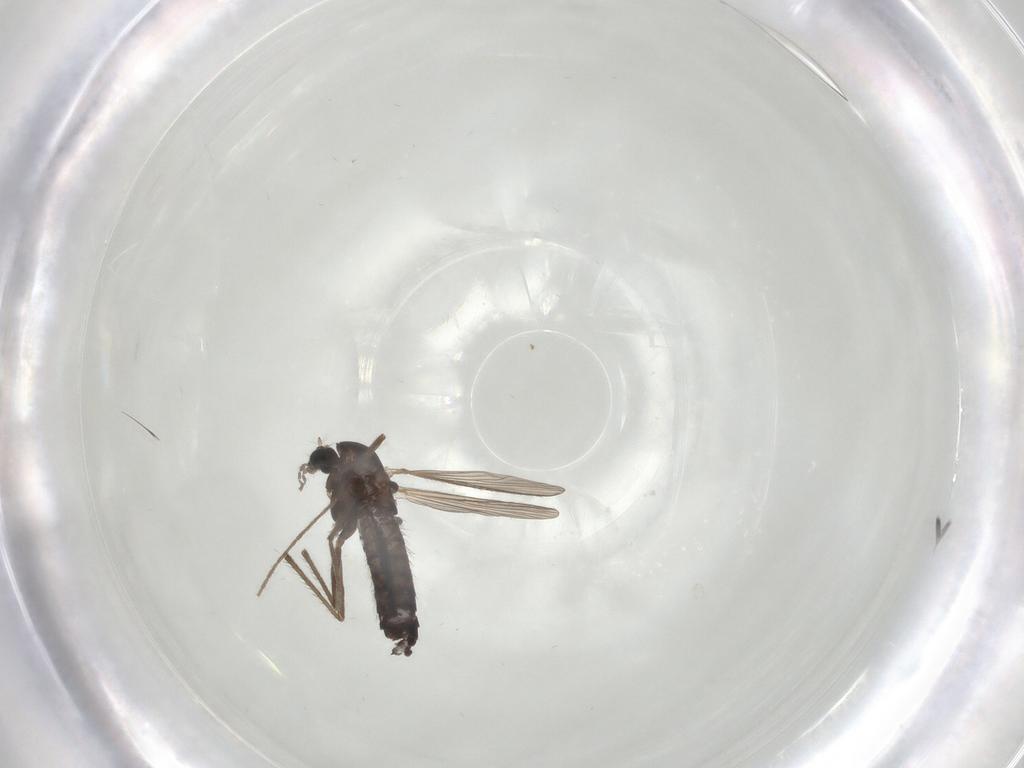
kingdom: Animalia
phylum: Arthropoda
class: Insecta
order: Diptera
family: Chironomidae
